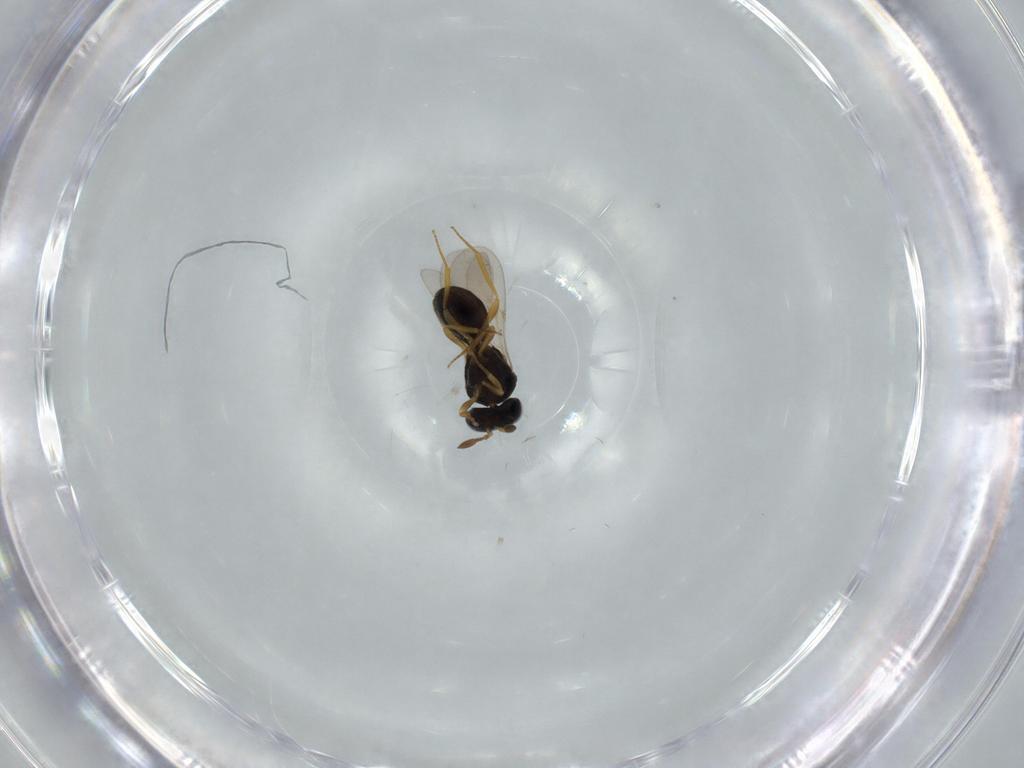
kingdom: Animalia
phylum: Arthropoda
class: Insecta
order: Hymenoptera
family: Scelionidae
